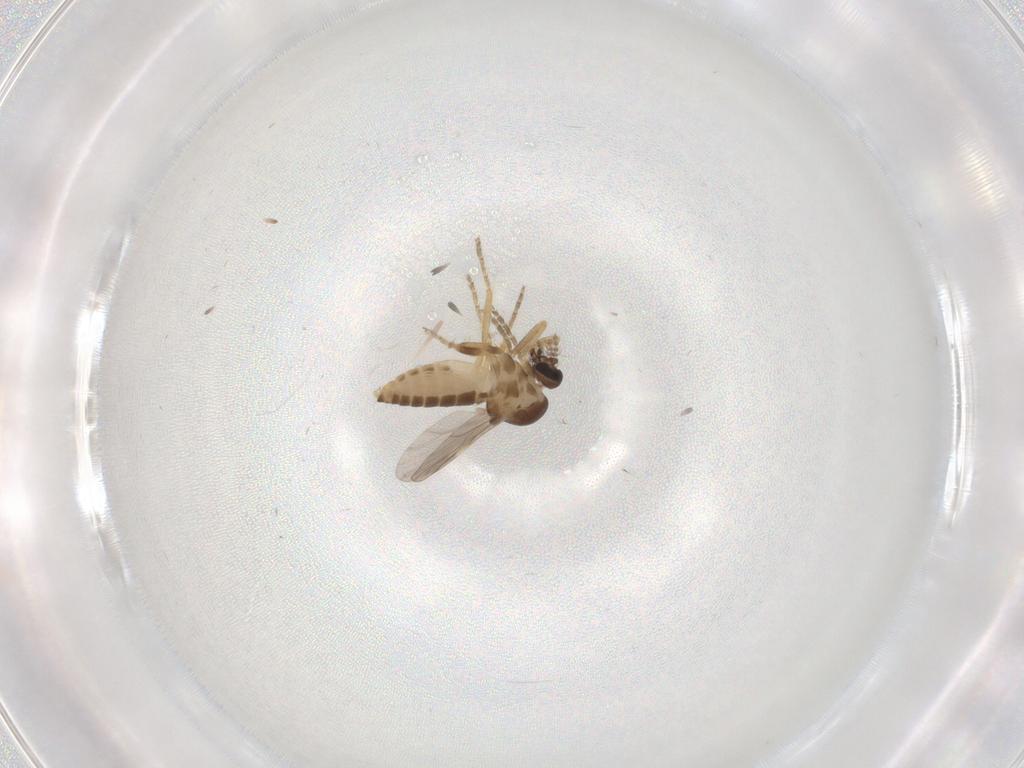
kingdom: Animalia
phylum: Arthropoda
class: Insecta
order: Diptera
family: Ceratopogonidae
